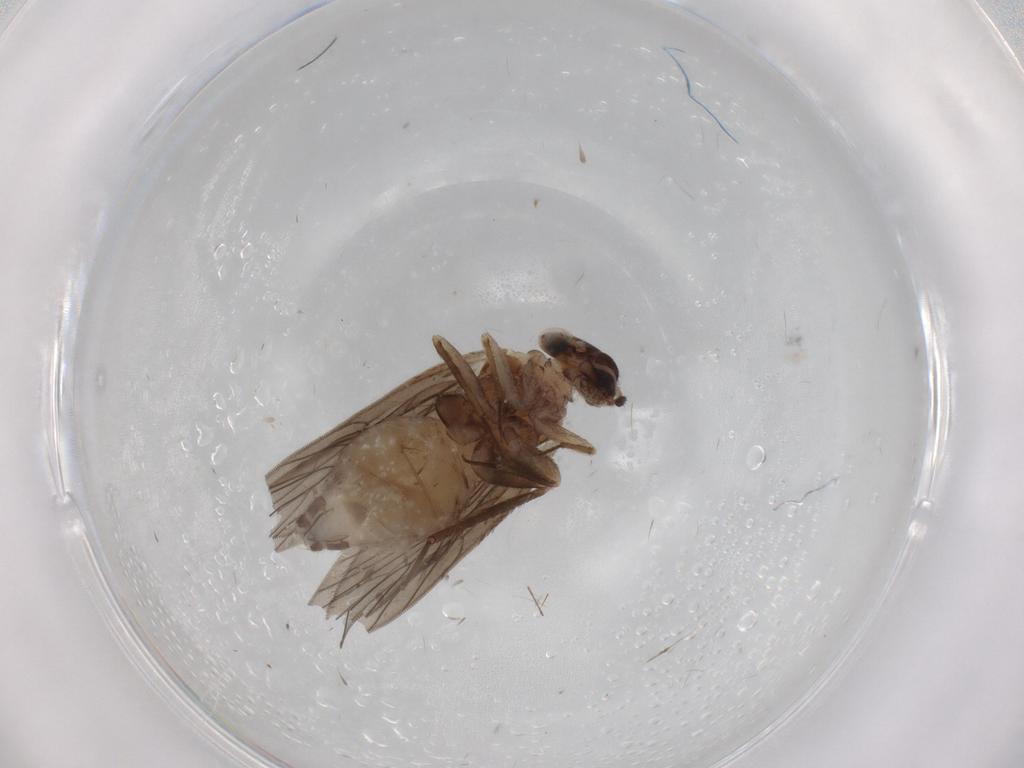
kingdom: Animalia
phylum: Arthropoda
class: Insecta
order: Psocodea
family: Lepidopsocidae
